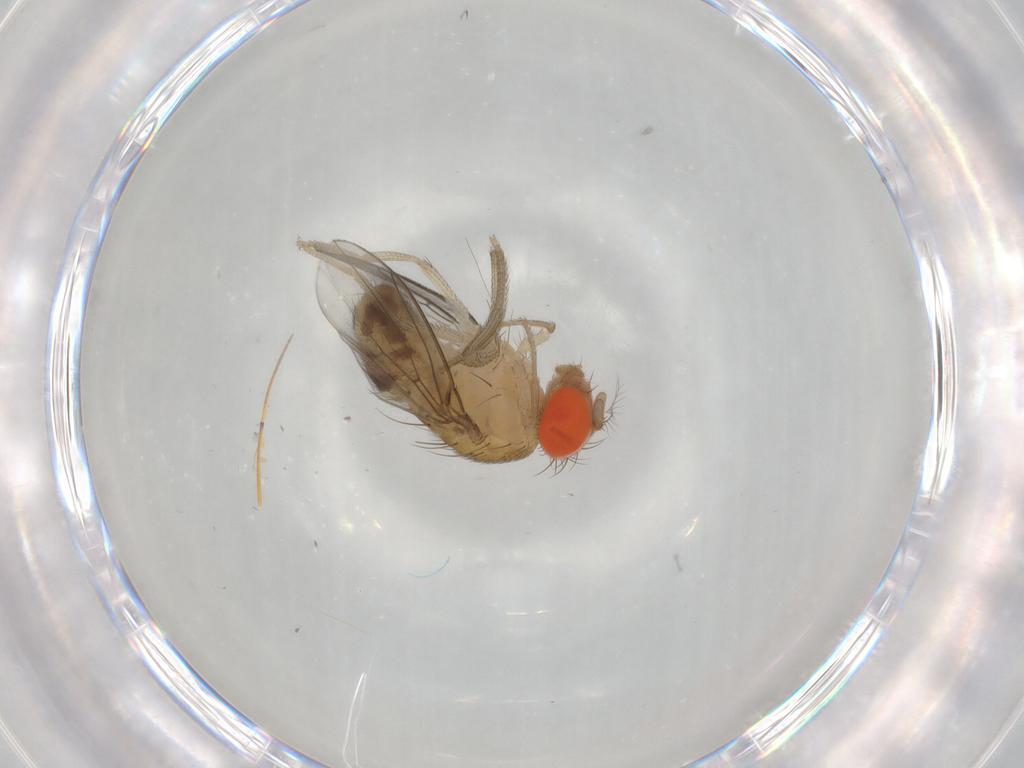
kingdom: Animalia
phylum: Arthropoda
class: Insecta
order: Diptera
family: Drosophilidae
